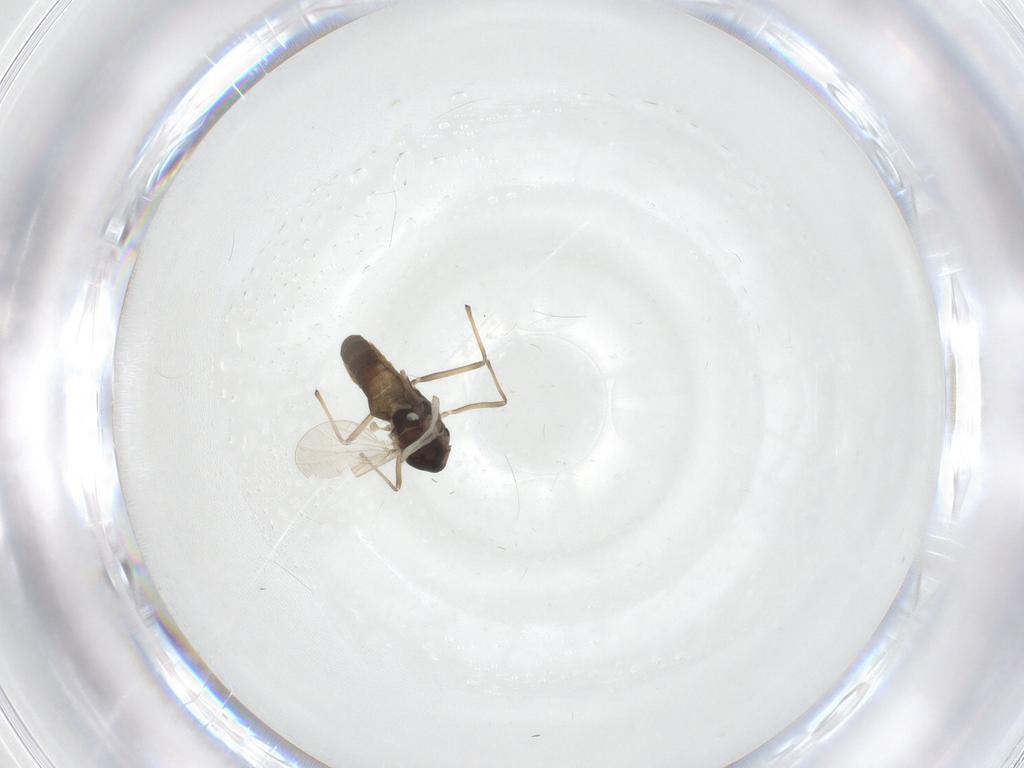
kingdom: Animalia
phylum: Arthropoda
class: Insecta
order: Diptera
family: Chironomidae
